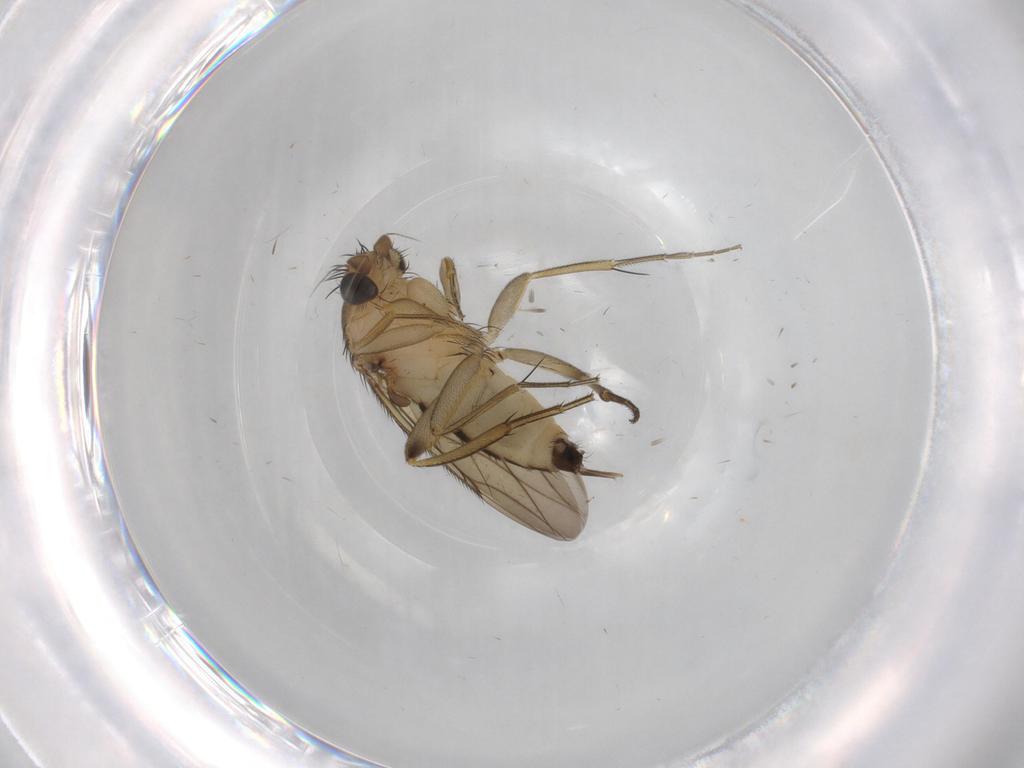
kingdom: Animalia
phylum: Arthropoda
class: Insecta
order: Diptera
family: Phoridae
